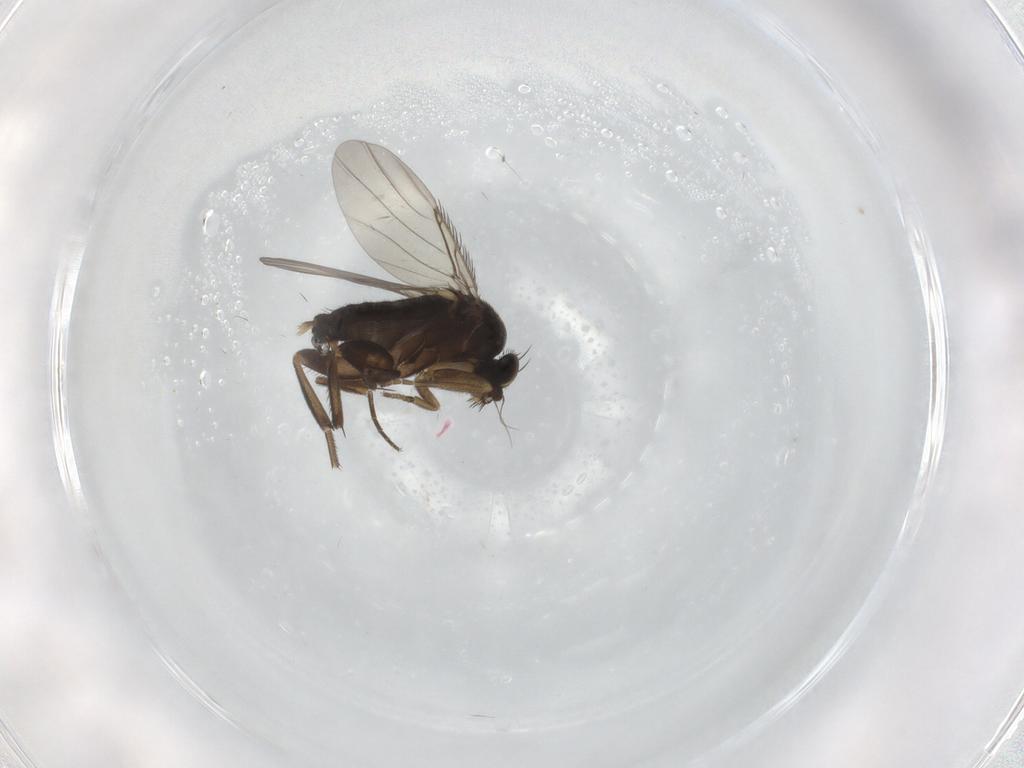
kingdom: Animalia
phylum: Arthropoda
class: Insecta
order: Diptera
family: Phoridae
